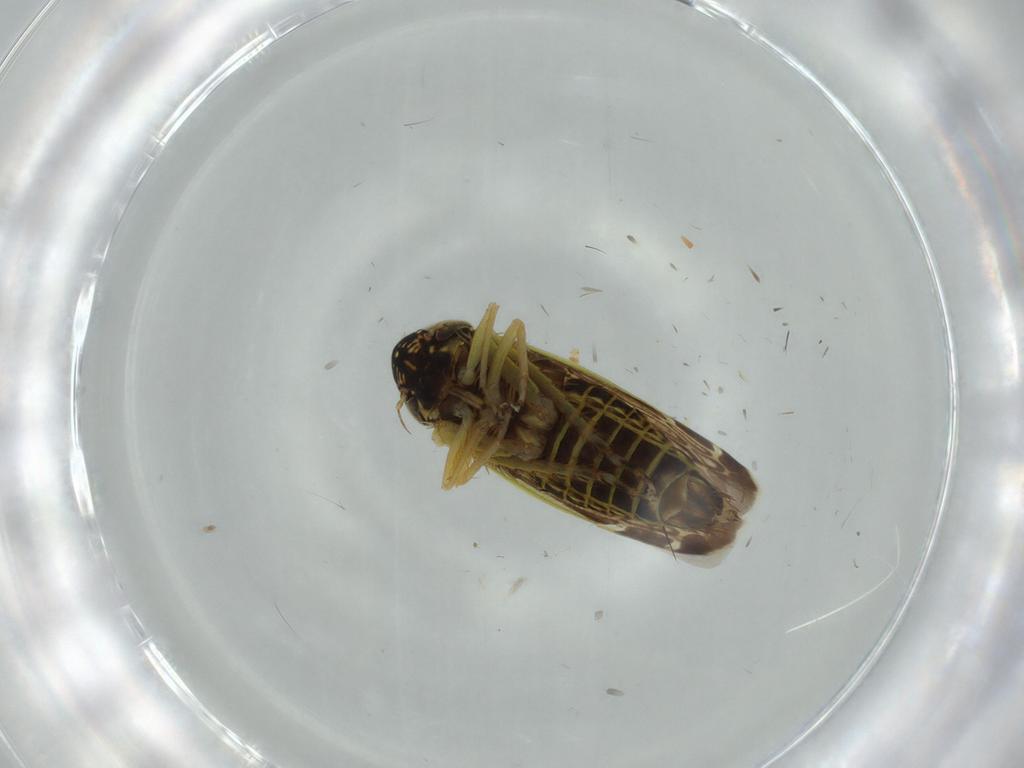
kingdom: Animalia
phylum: Arthropoda
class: Insecta
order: Hemiptera
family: Cicadellidae
